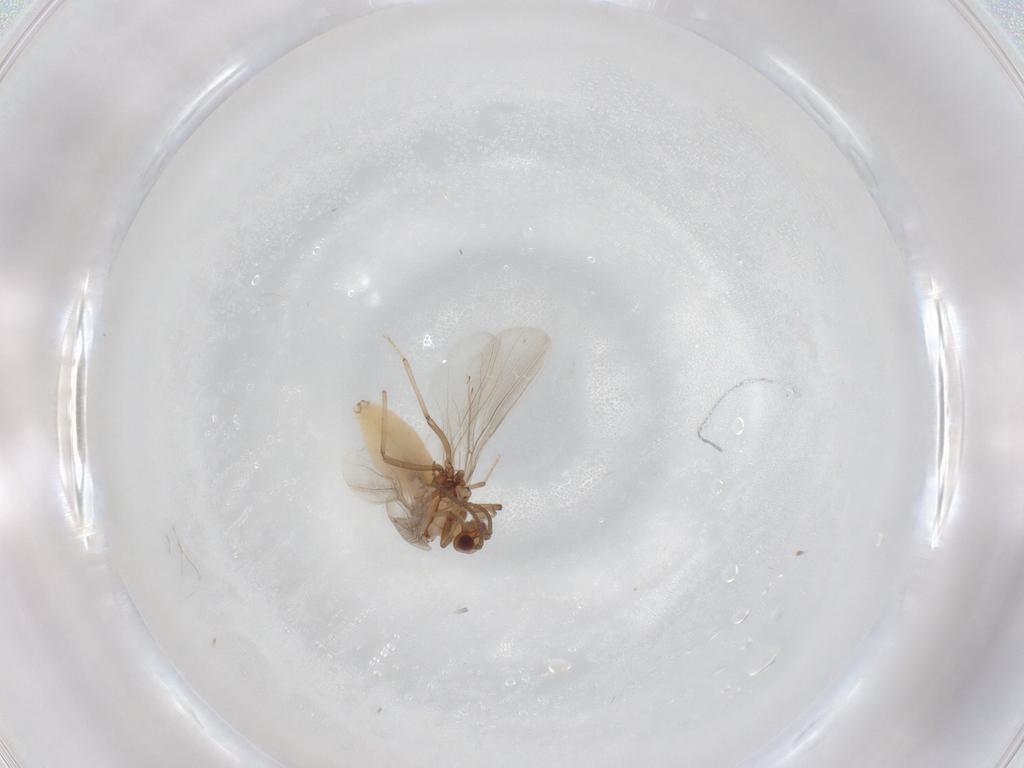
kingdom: Animalia
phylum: Arthropoda
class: Insecta
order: Neuroptera
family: Coniopterygidae
